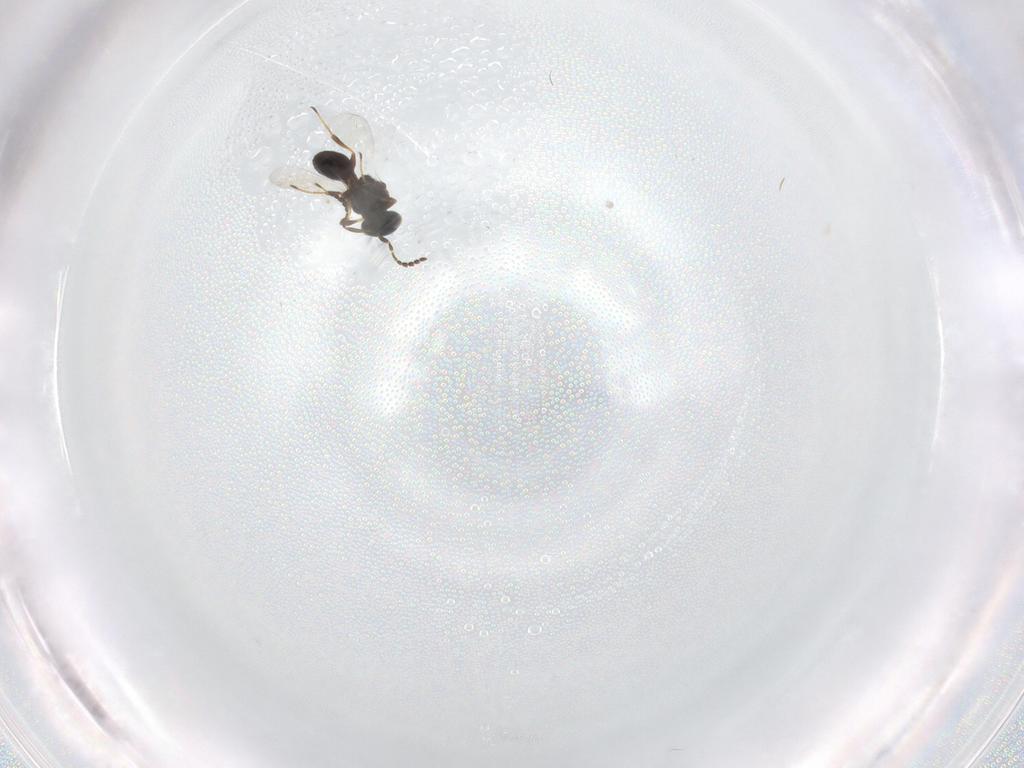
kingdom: Animalia
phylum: Arthropoda
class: Insecta
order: Hymenoptera
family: Platygastridae
